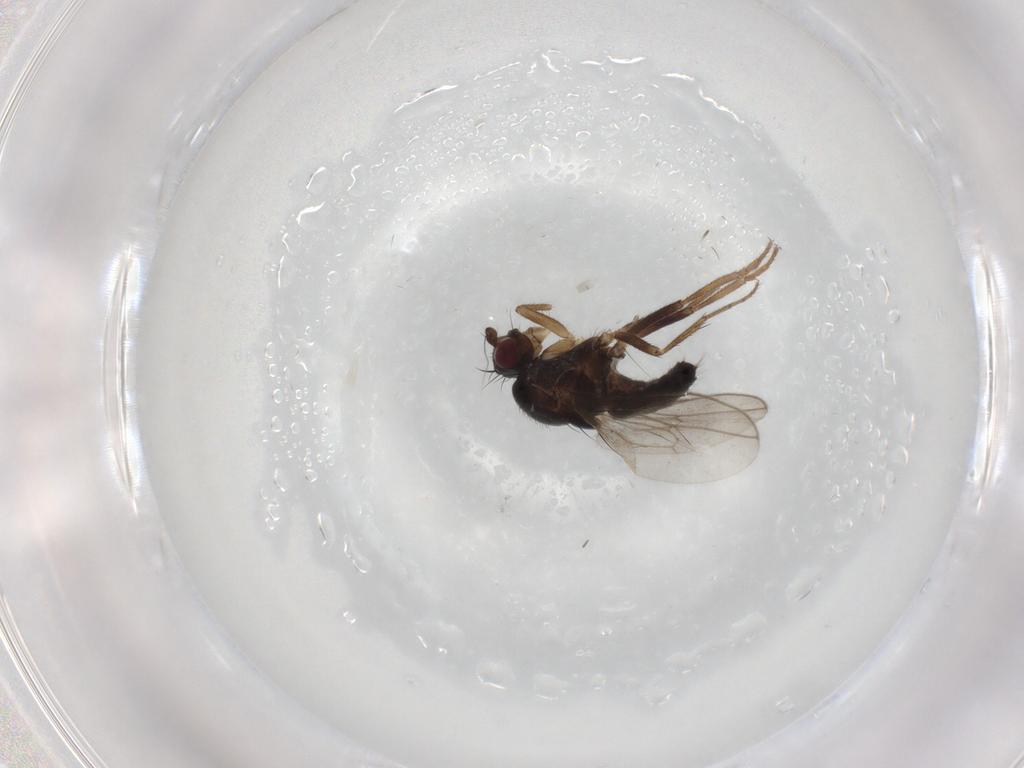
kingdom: Animalia
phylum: Arthropoda
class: Insecta
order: Diptera
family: Sphaeroceridae
